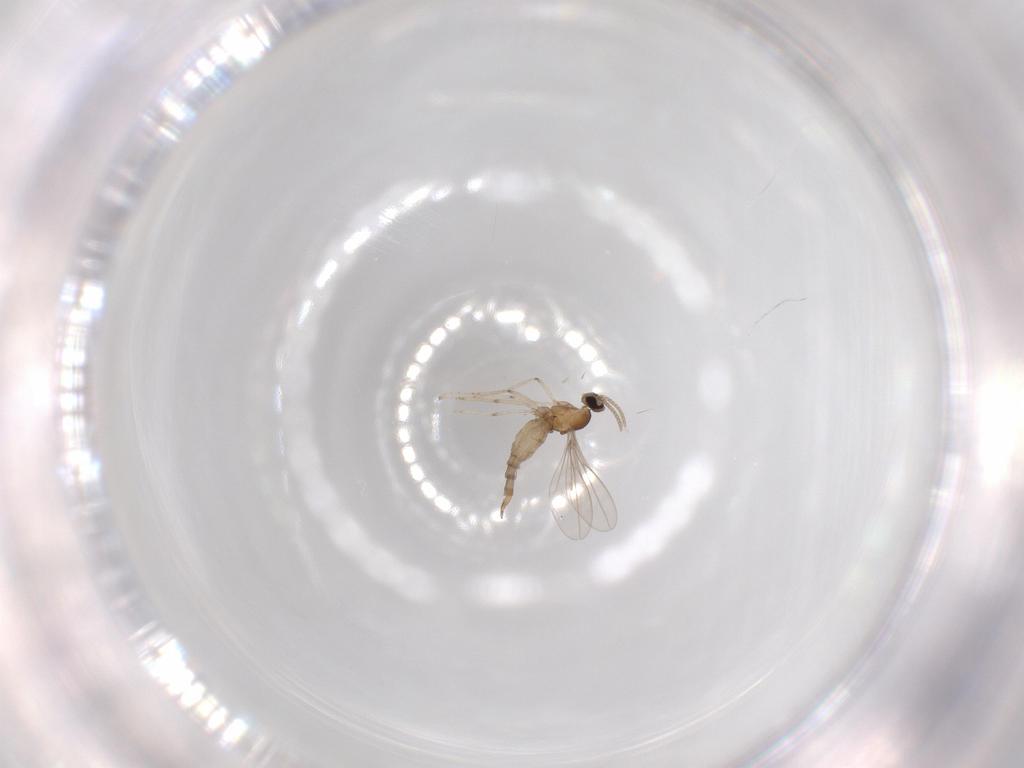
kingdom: Animalia
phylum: Arthropoda
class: Insecta
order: Diptera
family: Cecidomyiidae
